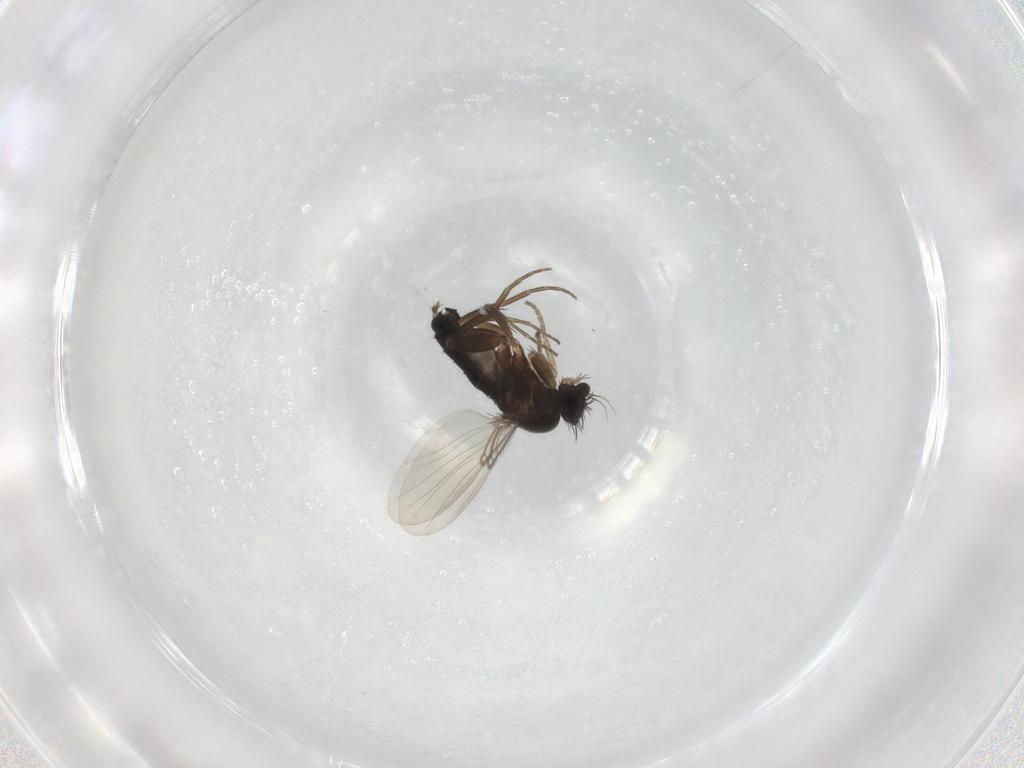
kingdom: Animalia
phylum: Arthropoda
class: Insecta
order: Diptera
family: Phoridae
